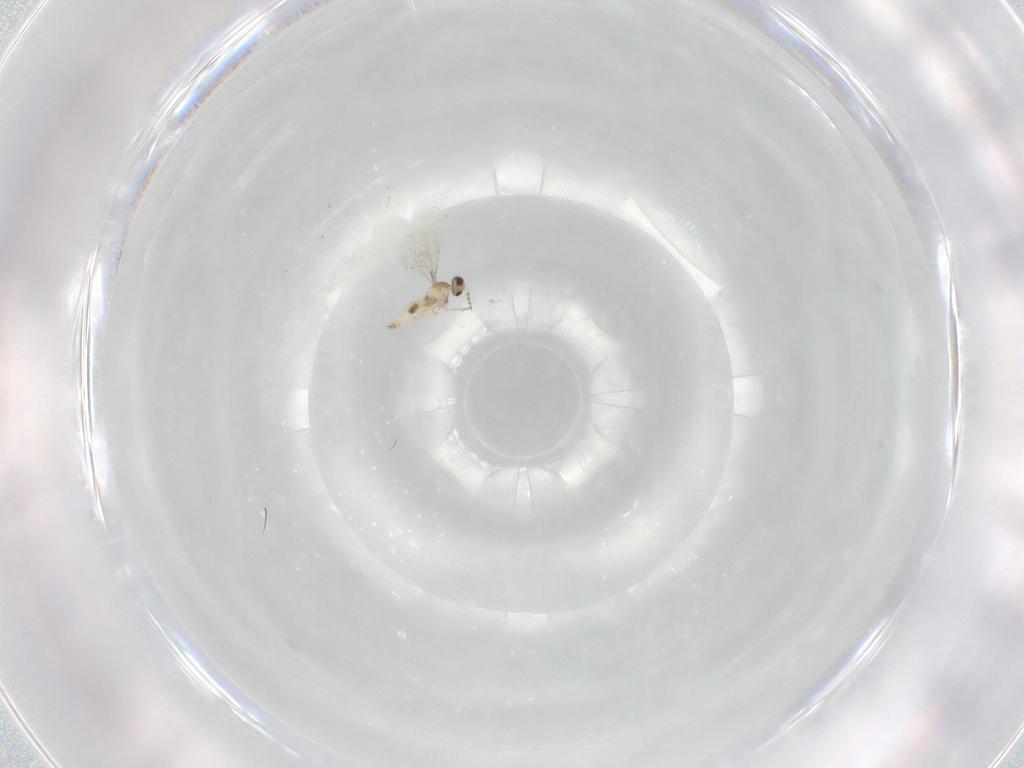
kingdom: Animalia
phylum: Arthropoda
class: Insecta
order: Diptera
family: Cecidomyiidae
